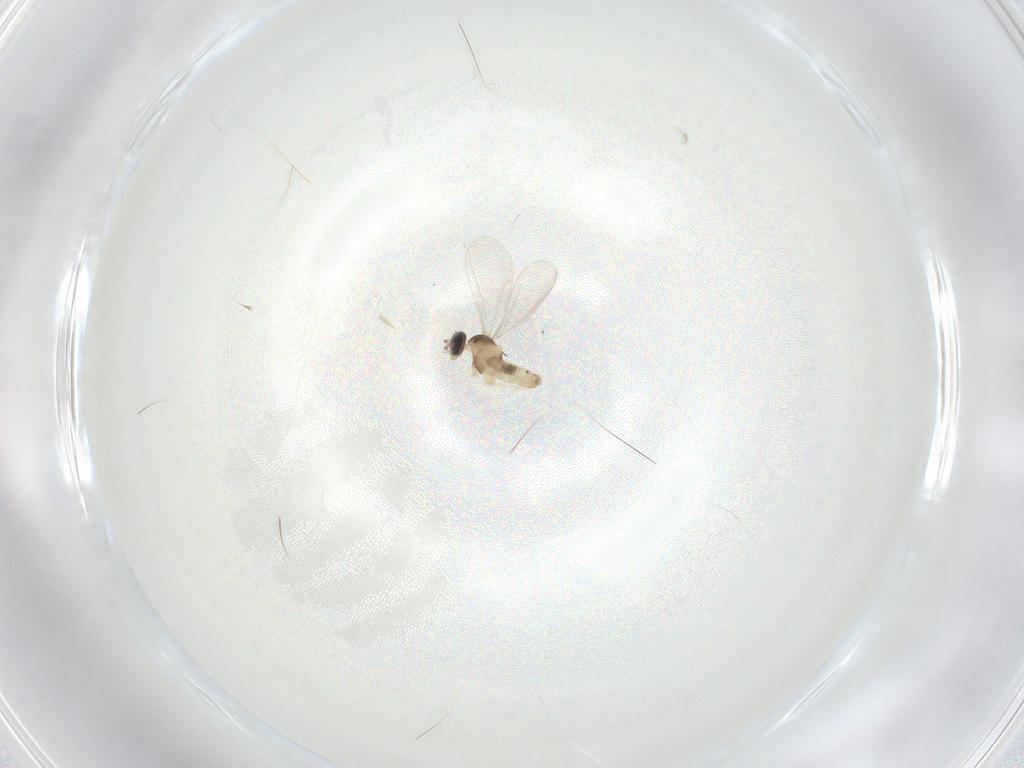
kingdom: Animalia
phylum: Arthropoda
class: Insecta
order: Diptera
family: Cecidomyiidae
